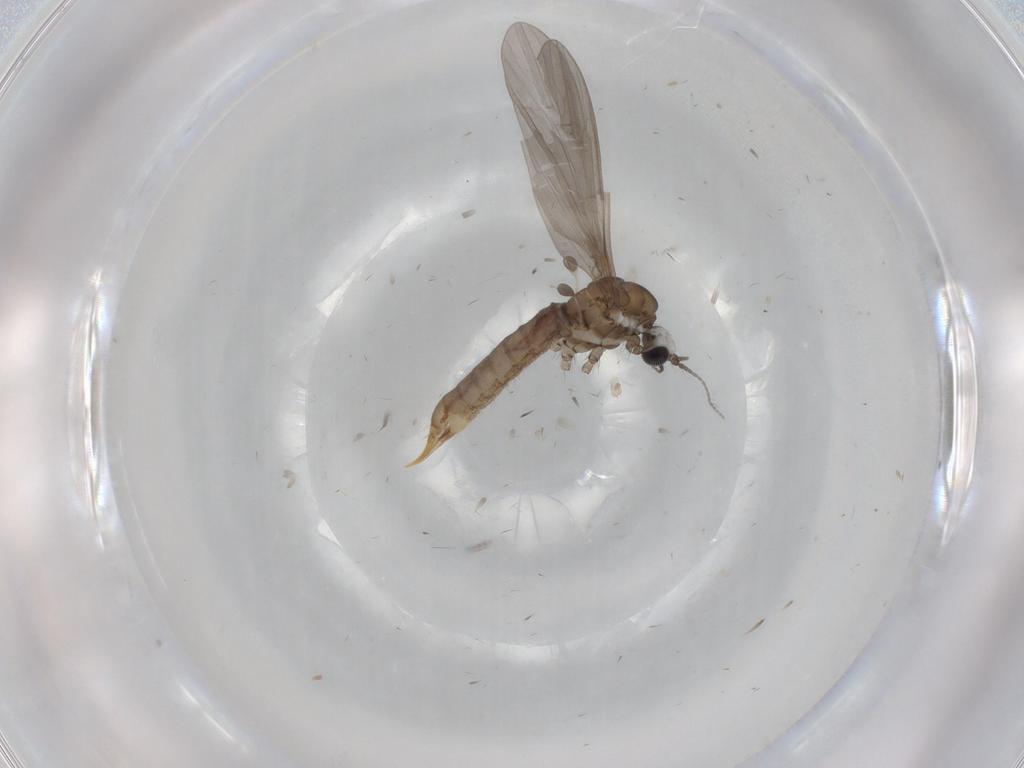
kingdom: Animalia
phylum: Arthropoda
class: Insecta
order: Diptera
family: Limoniidae
